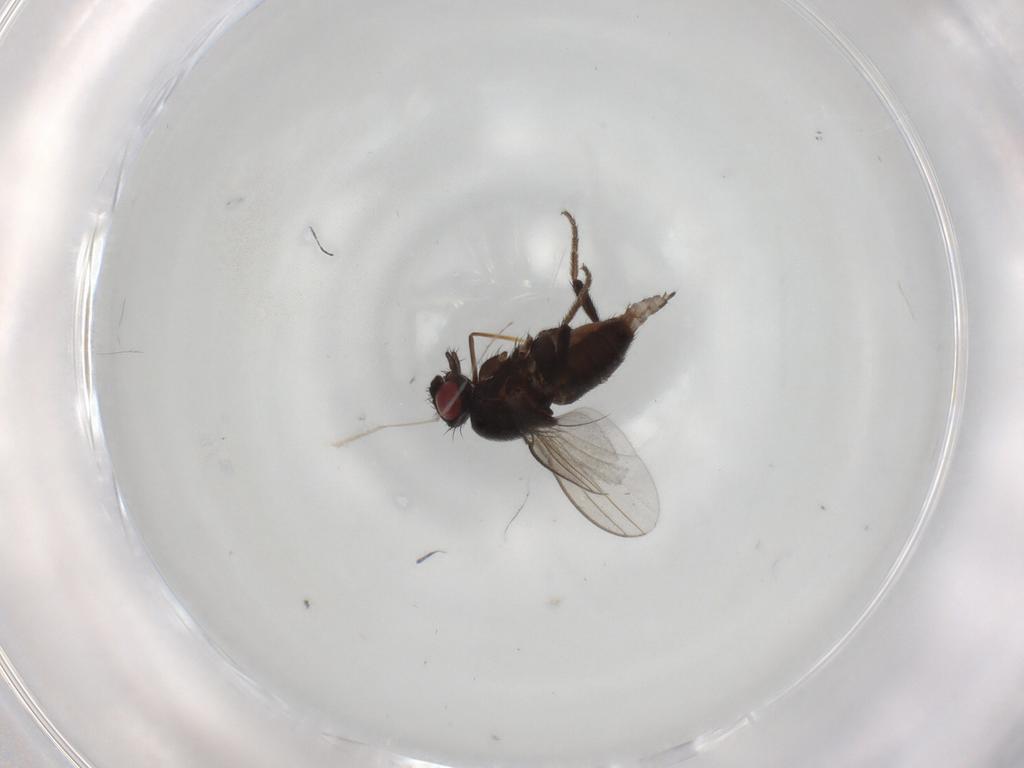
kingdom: Animalia
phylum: Arthropoda
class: Insecta
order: Diptera
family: Milichiidae
